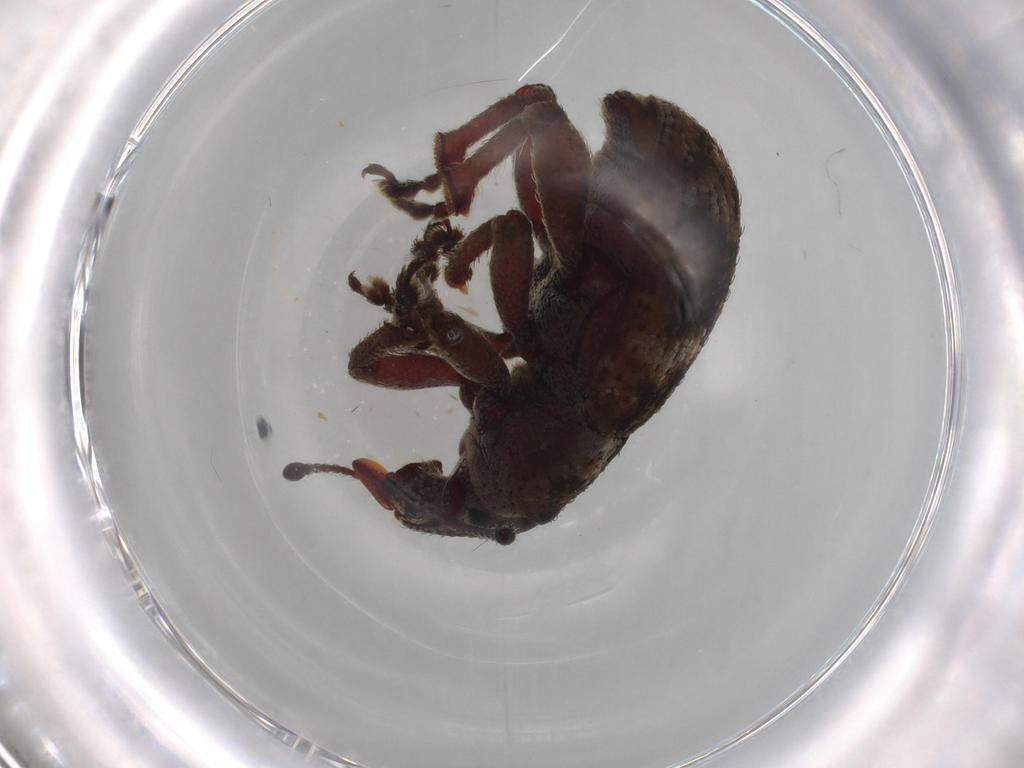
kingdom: Animalia
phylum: Arthropoda
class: Insecta
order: Coleoptera
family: Curculionidae
